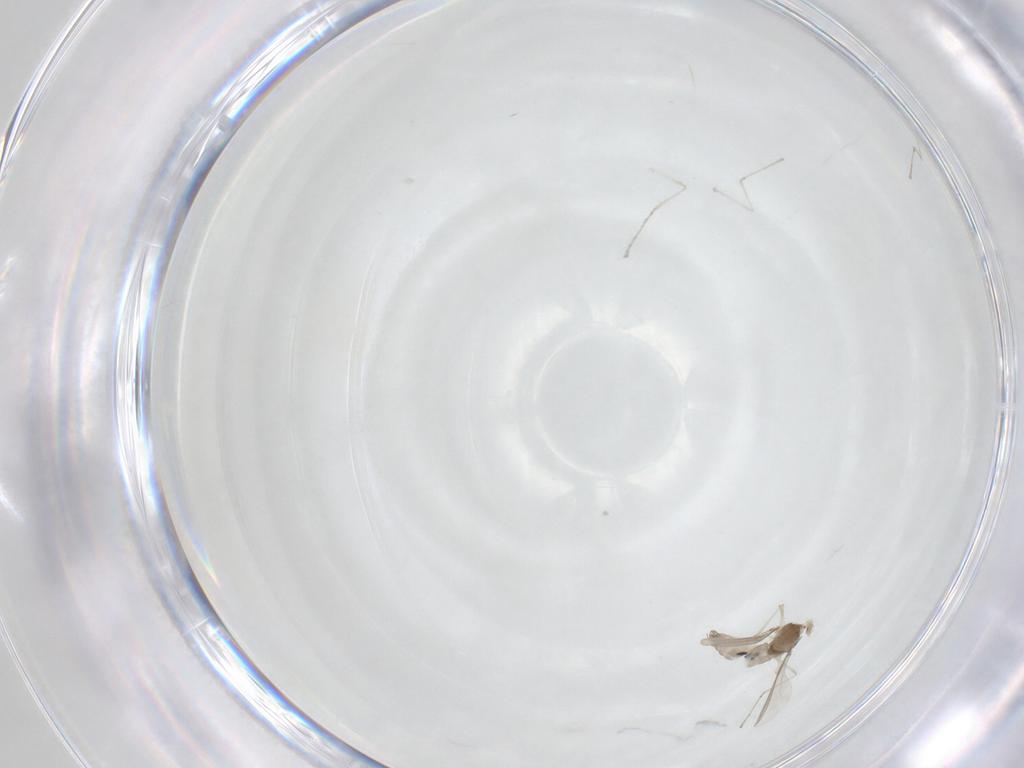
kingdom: Animalia
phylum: Arthropoda
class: Insecta
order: Diptera
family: Cecidomyiidae
